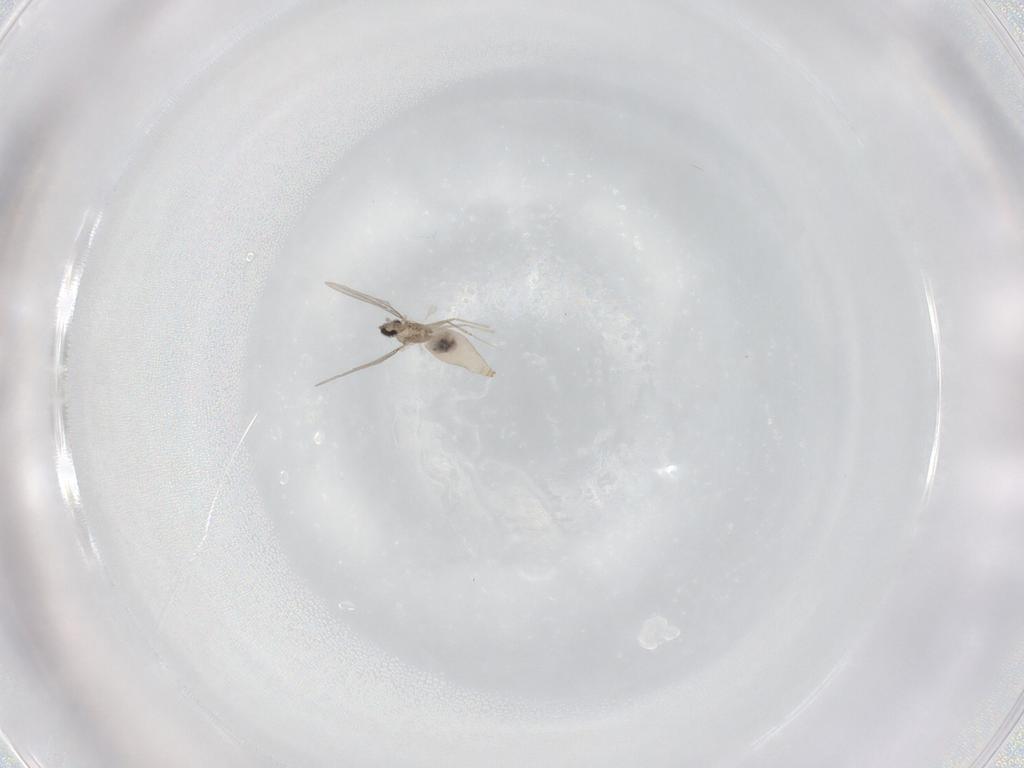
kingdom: Animalia
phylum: Arthropoda
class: Insecta
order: Diptera
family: Cecidomyiidae
